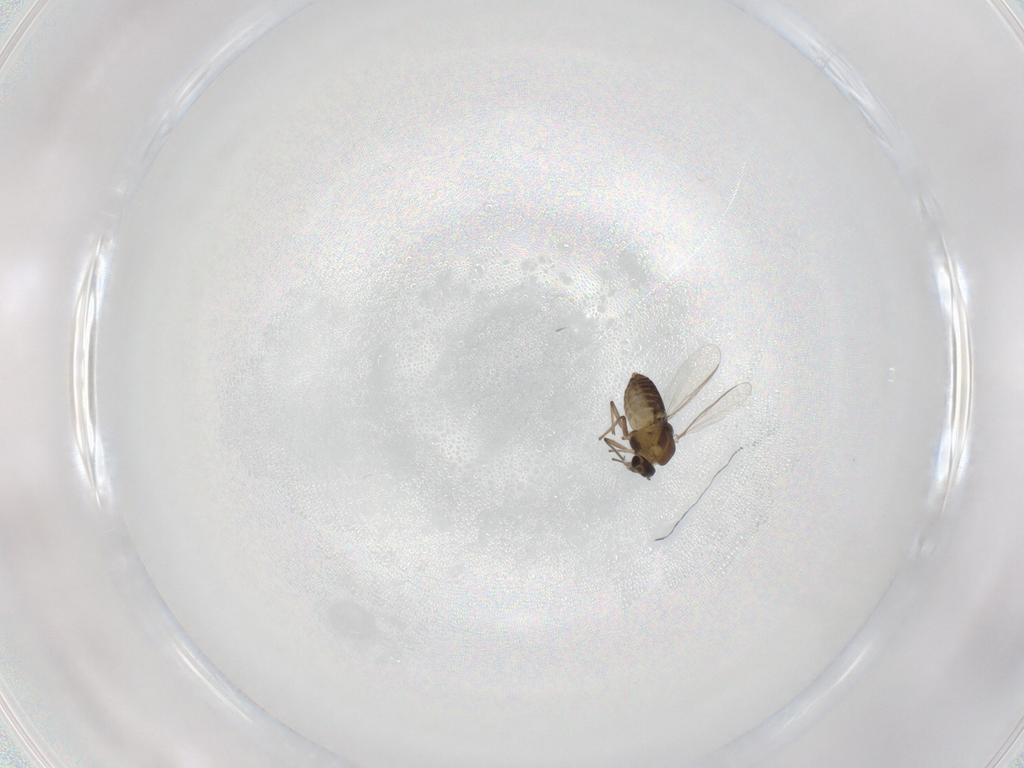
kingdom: Animalia
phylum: Arthropoda
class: Insecta
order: Diptera
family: Chironomidae
